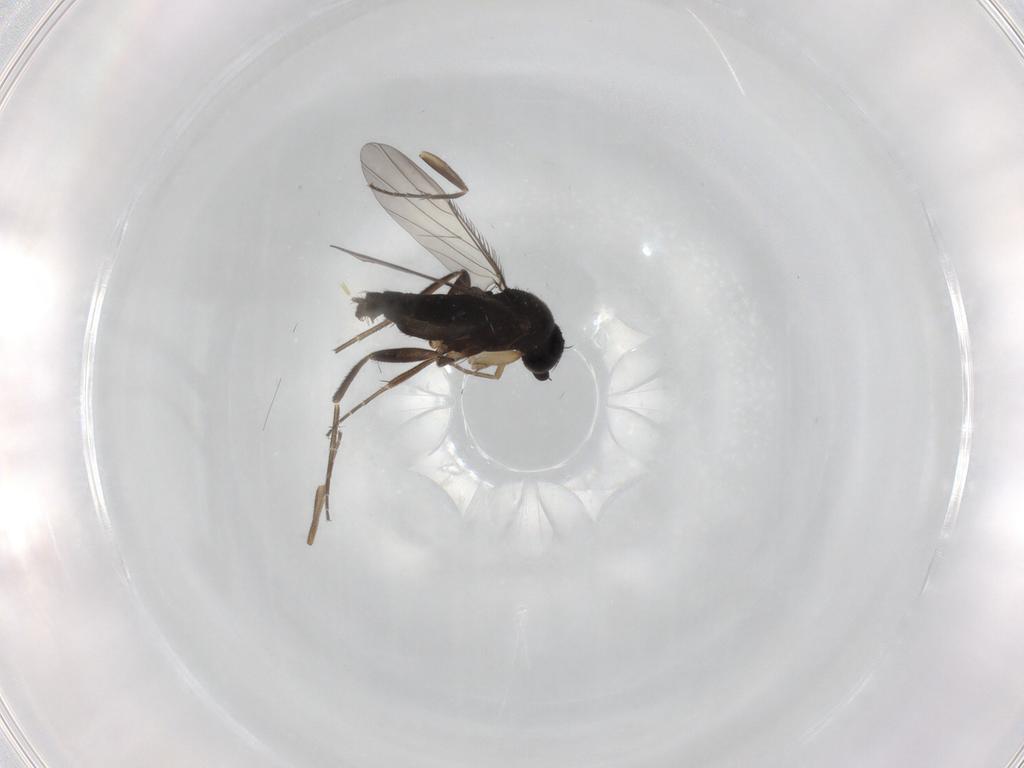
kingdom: Animalia
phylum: Arthropoda
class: Insecta
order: Diptera
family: Phoridae
